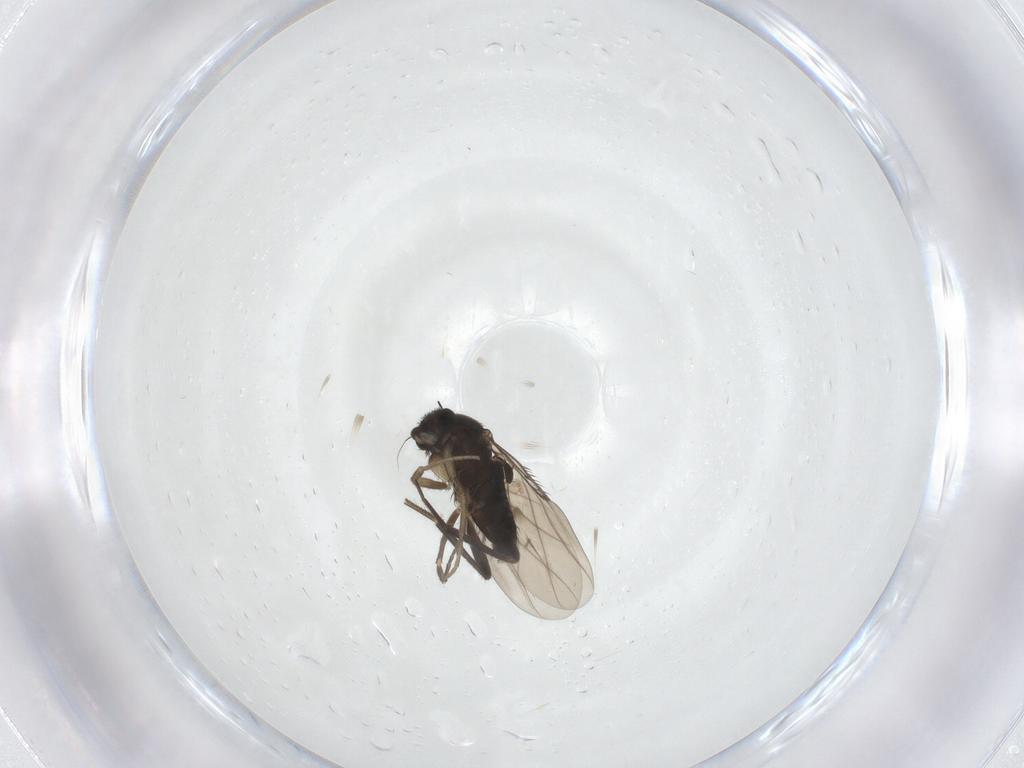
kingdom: Animalia
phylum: Arthropoda
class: Insecta
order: Diptera
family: Phoridae
